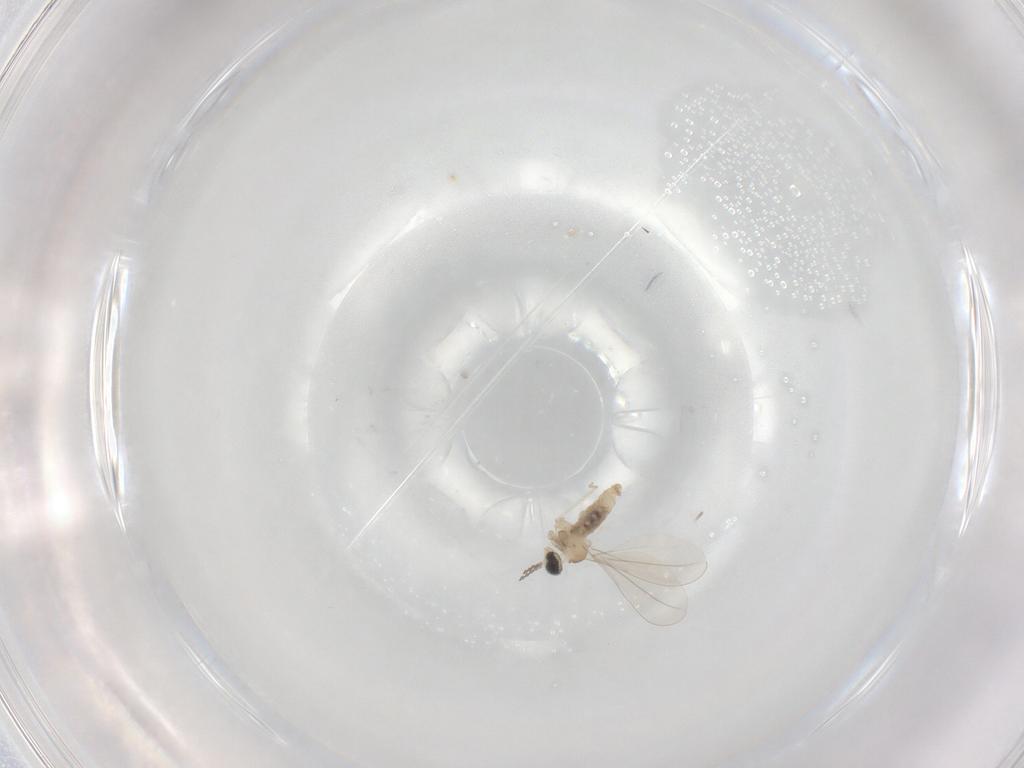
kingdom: Animalia
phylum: Arthropoda
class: Insecta
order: Diptera
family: Cecidomyiidae
